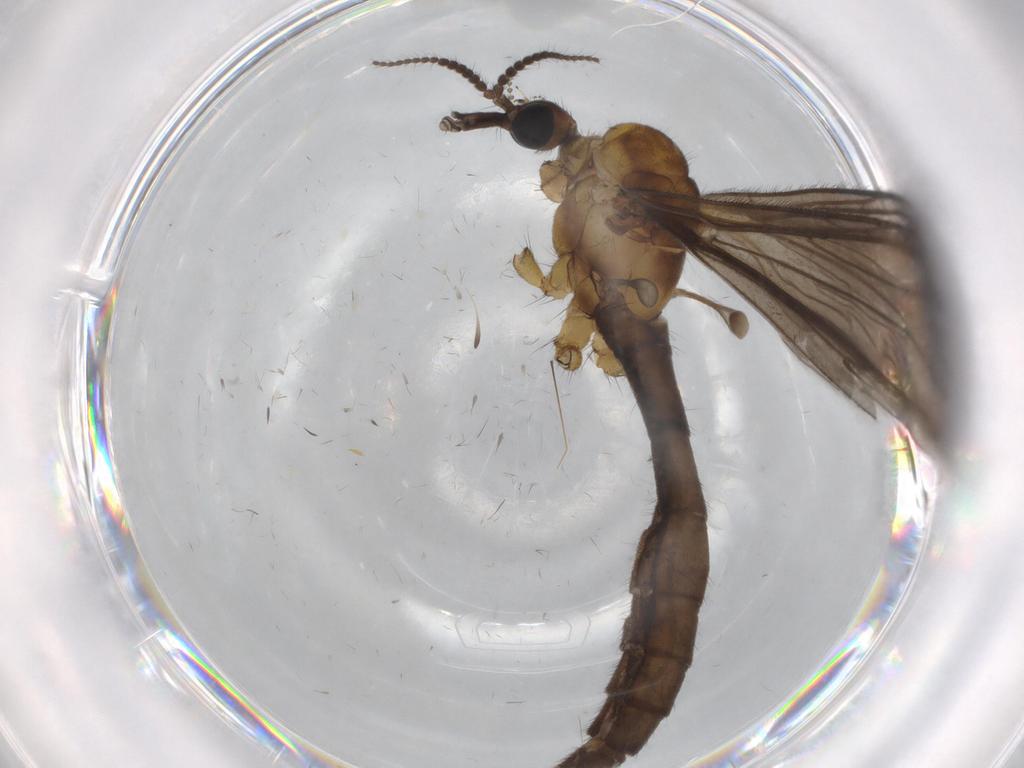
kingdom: Animalia
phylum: Arthropoda
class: Insecta
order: Diptera
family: Limoniidae
